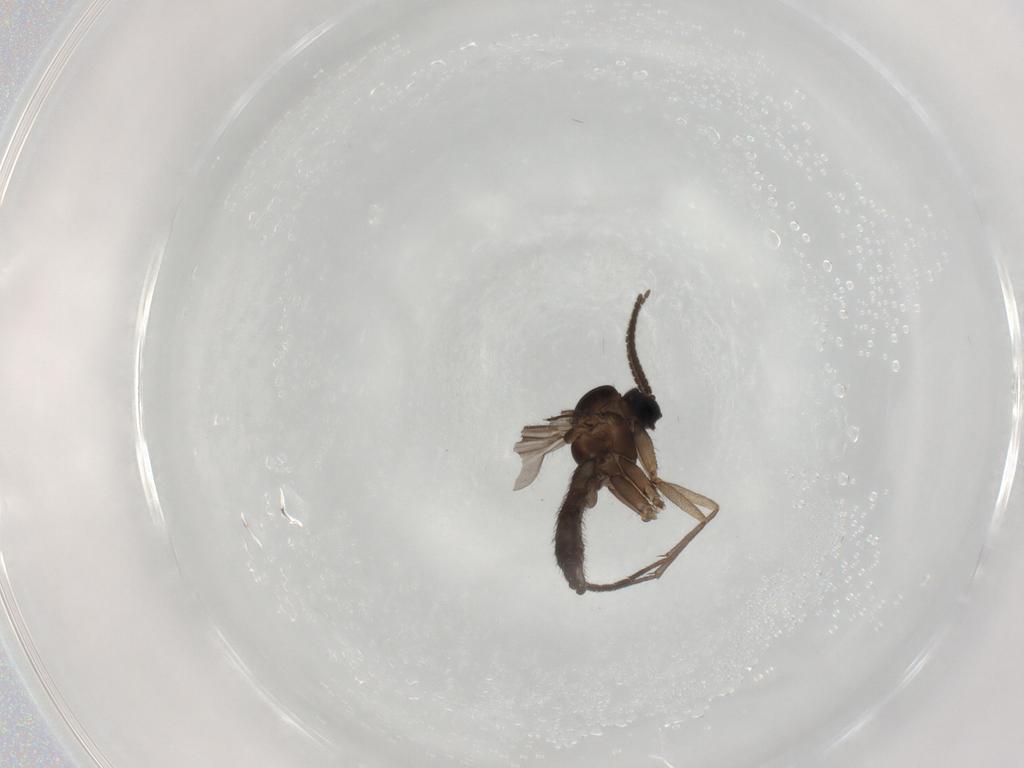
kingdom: Animalia
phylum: Arthropoda
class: Insecta
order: Diptera
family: Sciaridae
